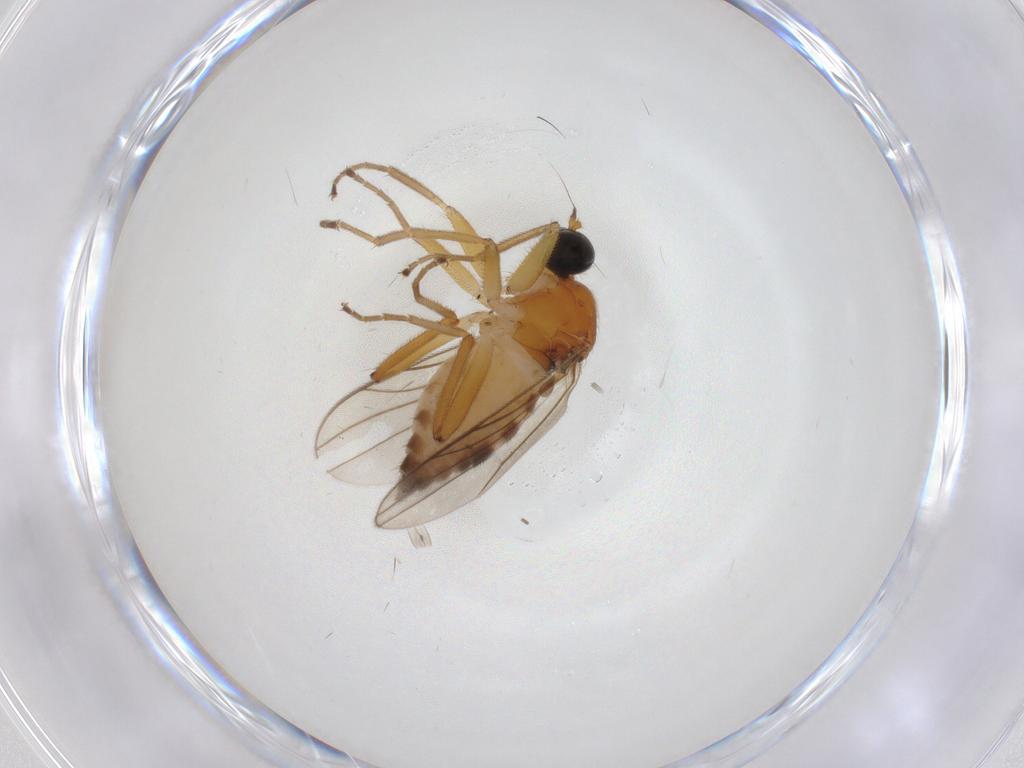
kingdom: Animalia
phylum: Arthropoda
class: Insecta
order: Diptera
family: Hybotidae
